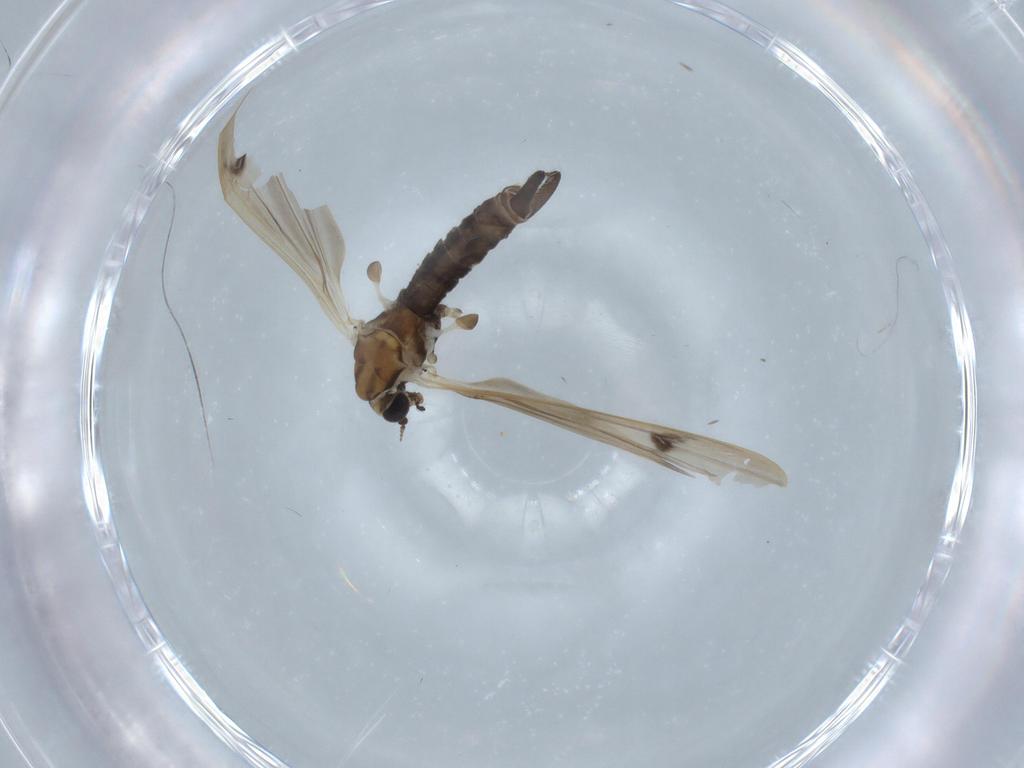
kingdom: Animalia
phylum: Arthropoda
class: Insecta
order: Diptera
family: Limoniidae
